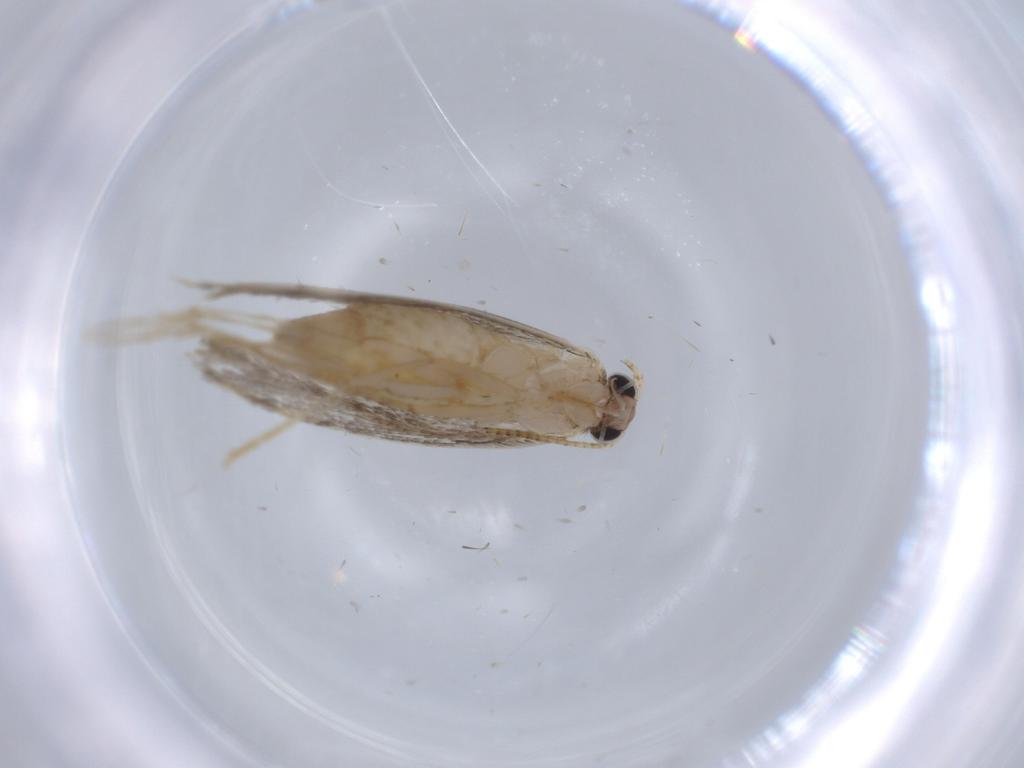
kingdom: Animalia
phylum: Arthropoda
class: Insecta
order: Lepidoptera
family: Tineidae
